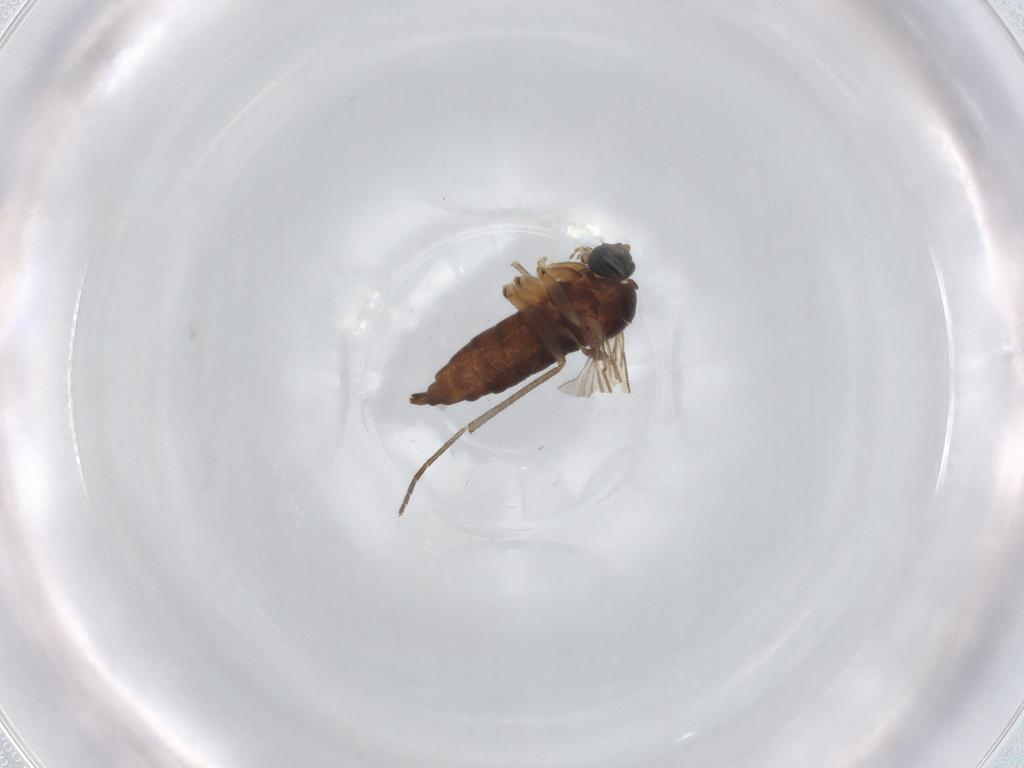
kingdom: Animalia
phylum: Arthropoda
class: Insecta
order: Diptera
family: Sciaridae
